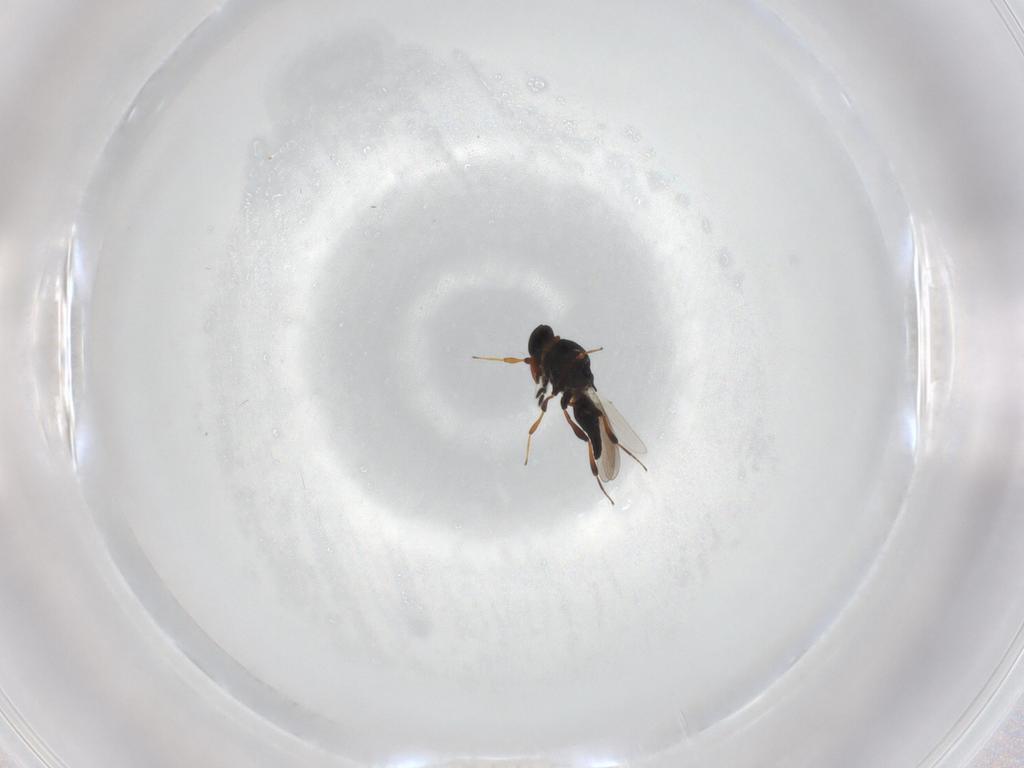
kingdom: Animalia
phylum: Arthropoda
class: Insecta
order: Hymenoptera
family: Platygastridae
